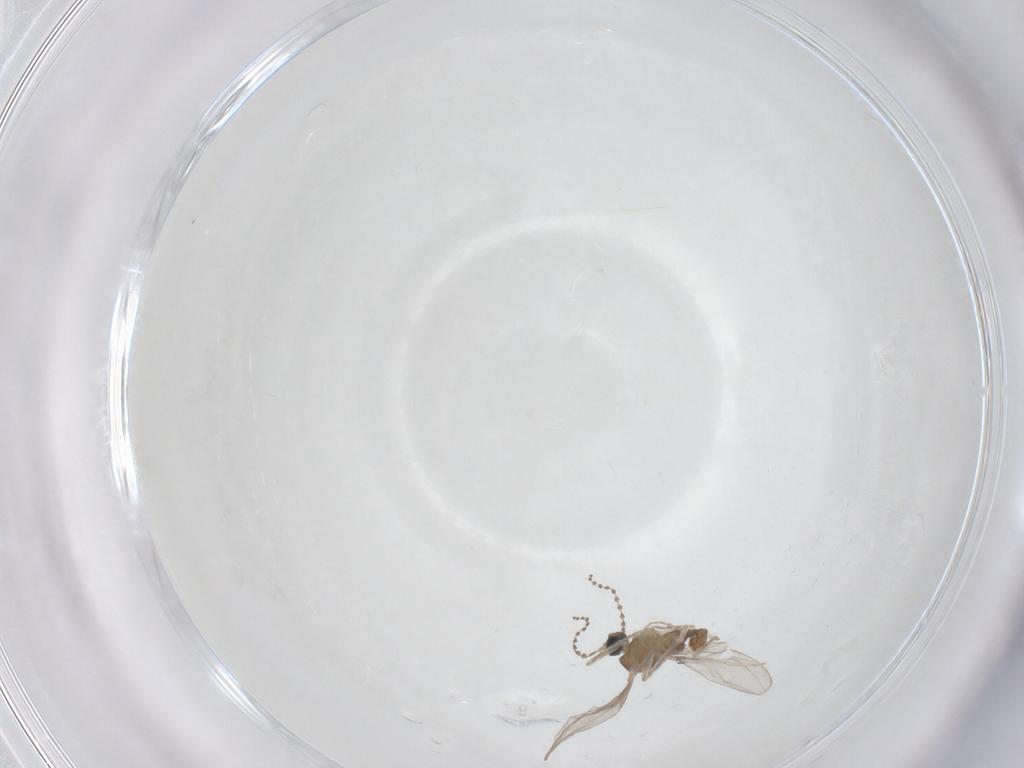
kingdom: Animalia
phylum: Arthropoda
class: Insecta
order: Diptera
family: Cecidomyiidae
